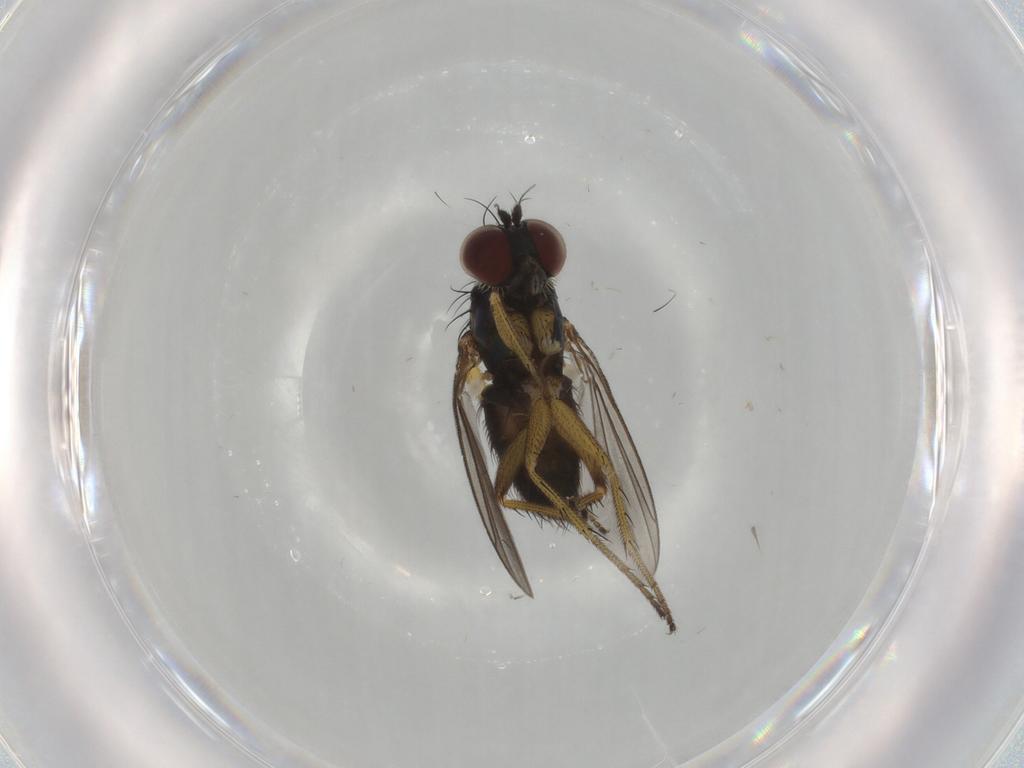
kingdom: Animalia
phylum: Arthropoda
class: Insecta
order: Diptera
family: Dolichopodidae
